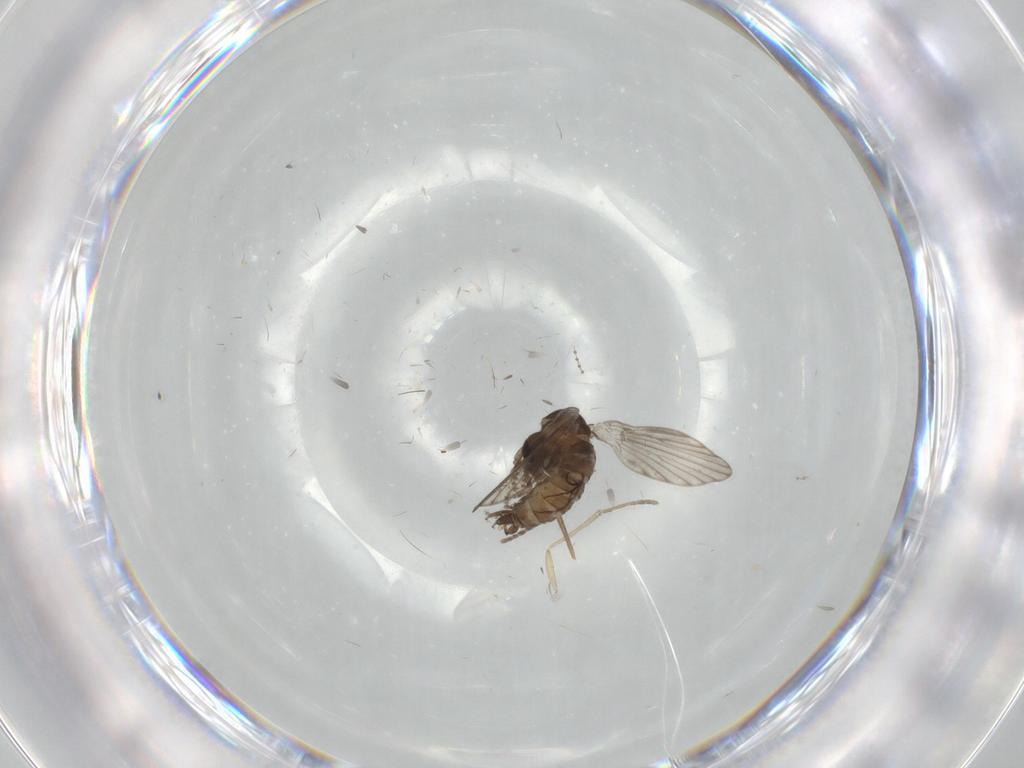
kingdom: Animalia
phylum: Arthropoda
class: Insecta
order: Diptera
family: Psychodidae
